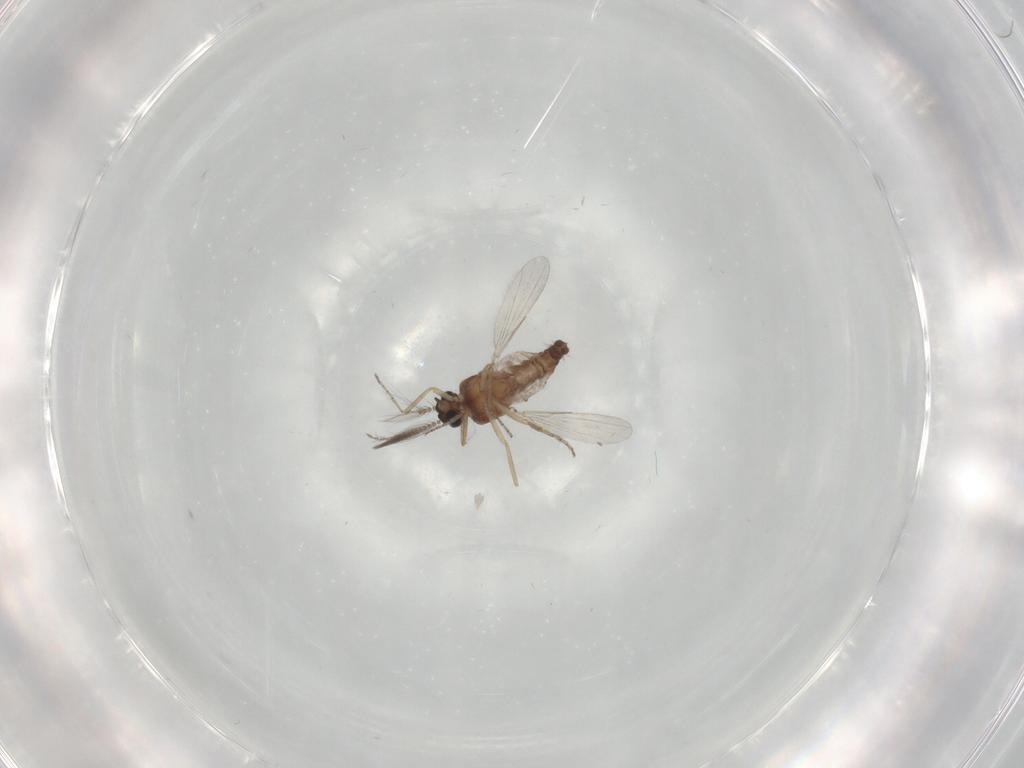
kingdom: Animalia
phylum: Arthropoda
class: Insecta
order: Diptera
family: Ceratopogonidae
